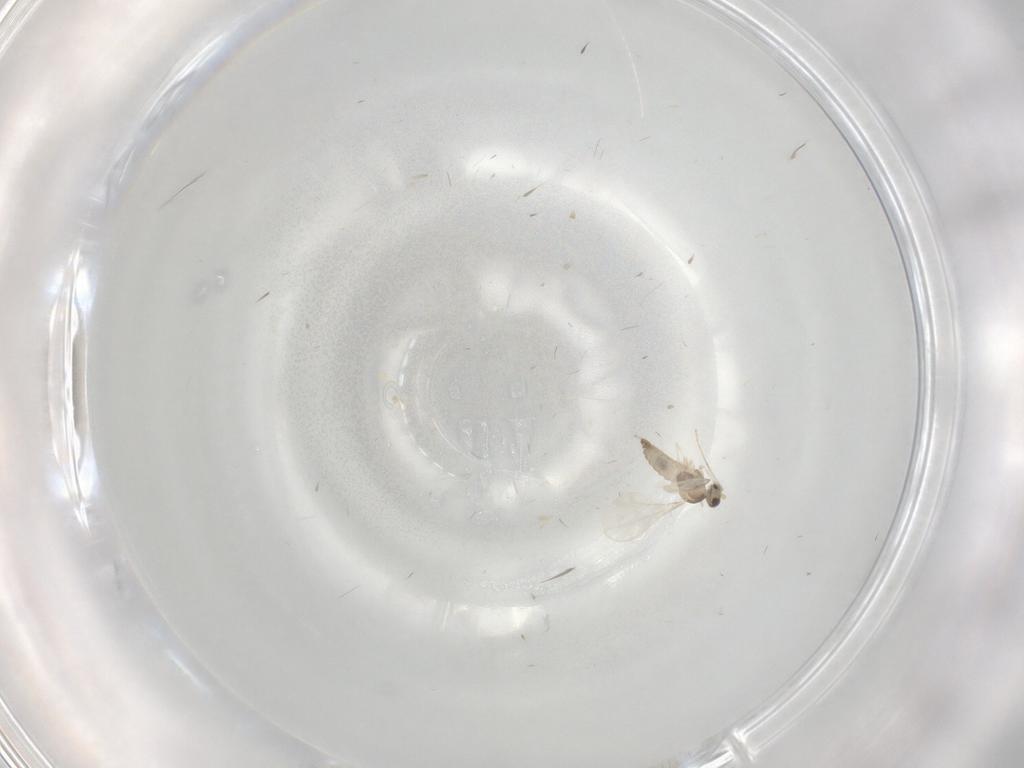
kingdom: Animalia
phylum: Arthropoda
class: Insecta
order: Diptera
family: Cecidomyiidae
